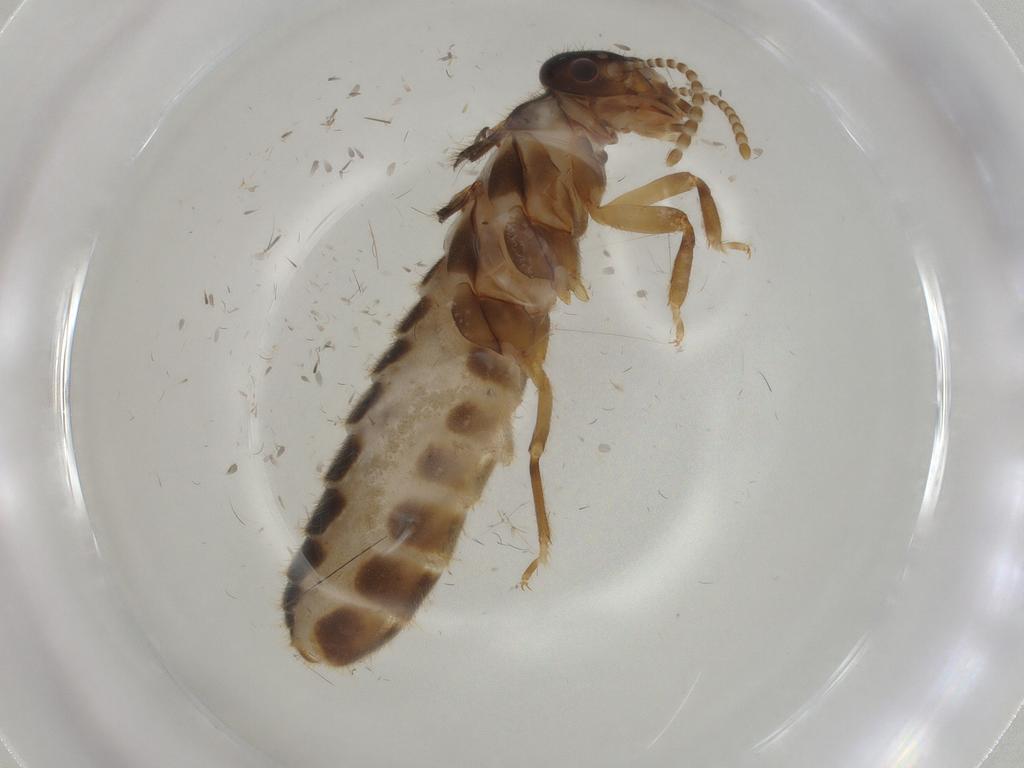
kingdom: Animalia
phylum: Arthropoda
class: Insecta
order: Blattodea
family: Termitidae
